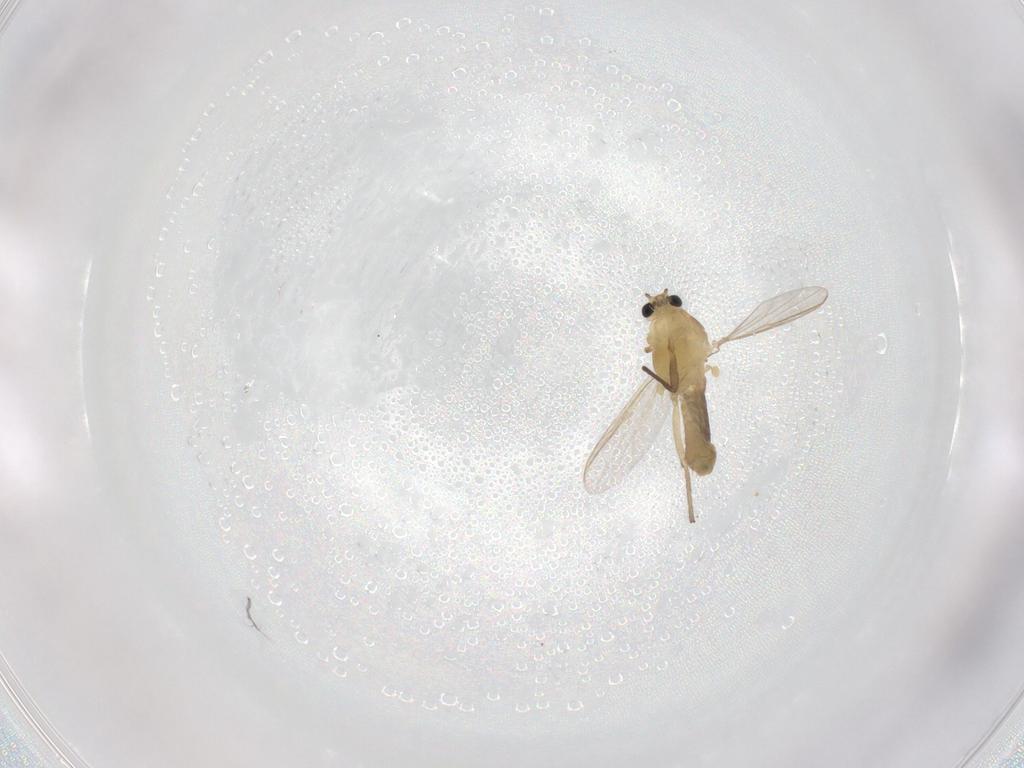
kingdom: Animalia
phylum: Arthropoda
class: Insecta
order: Diptera
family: Chironomidae
